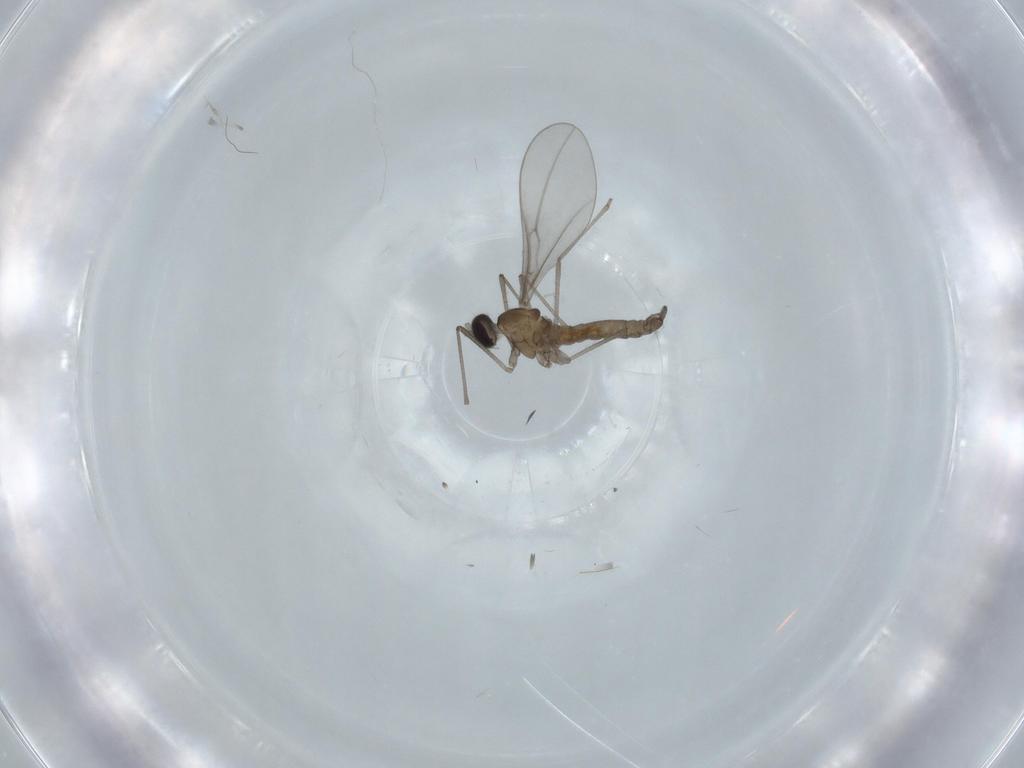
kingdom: Animalia
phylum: Arthropoda
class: Insecta
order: Diptera
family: Cecidomyiidae
